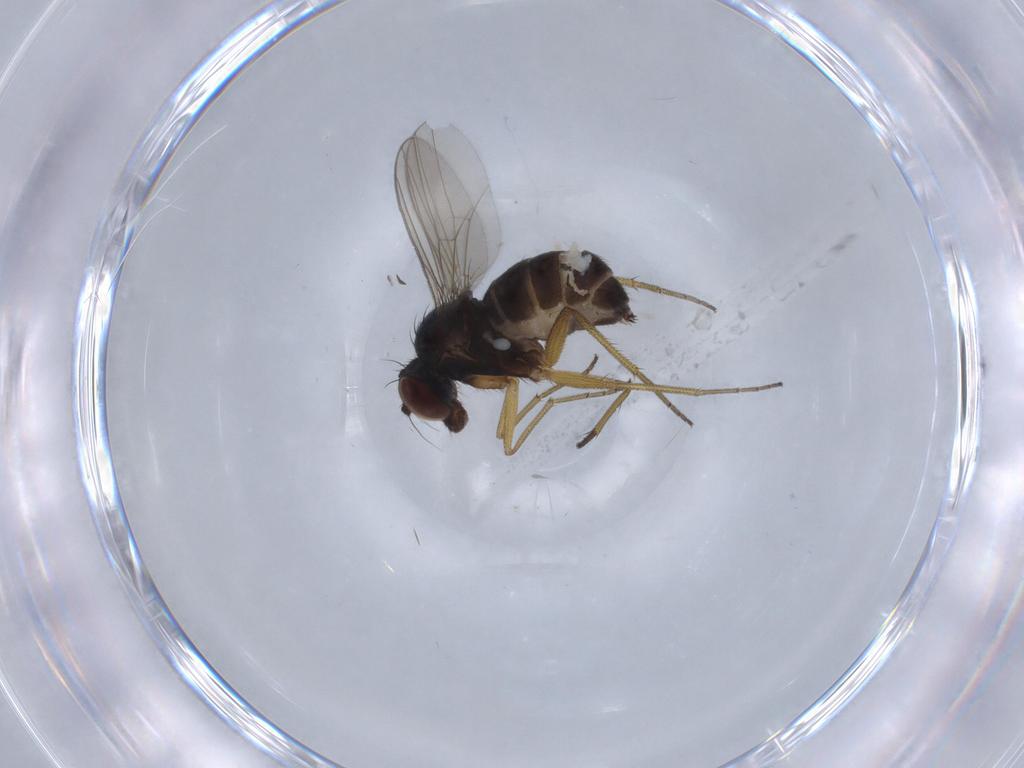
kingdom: Animalia
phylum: Arthropoda
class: Insecta
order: Diptera
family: Dolichopodidae
